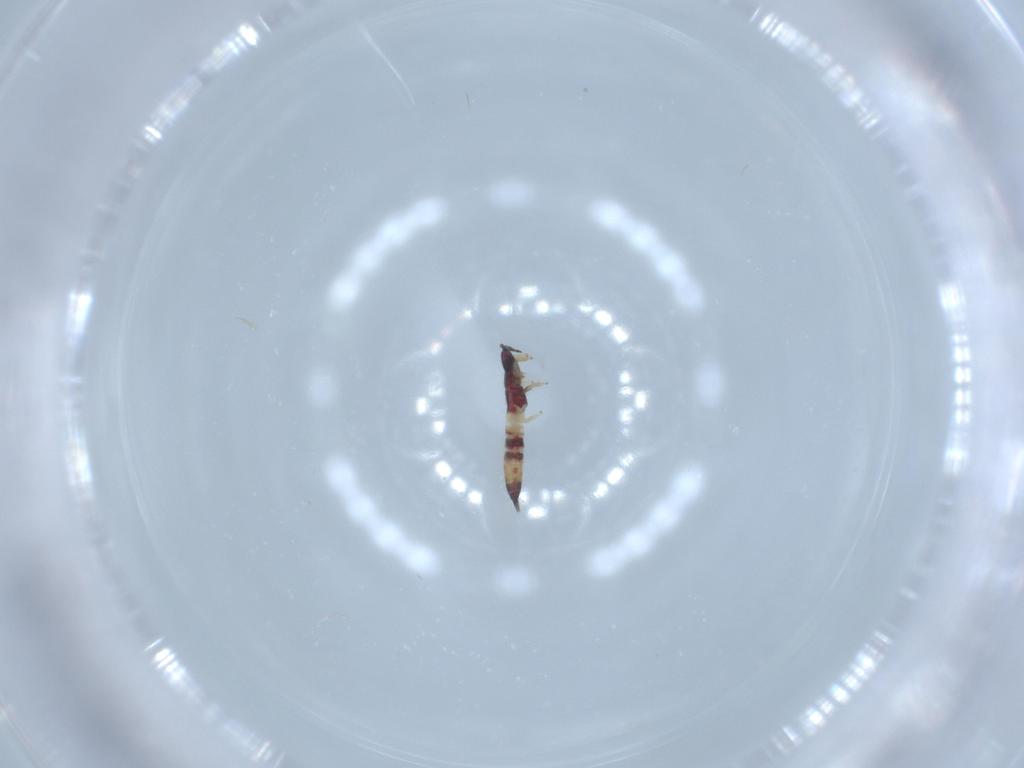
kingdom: Animalia
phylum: Arthropoda
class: Insecta
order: Thysanoptera
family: Phlaeothripidae
